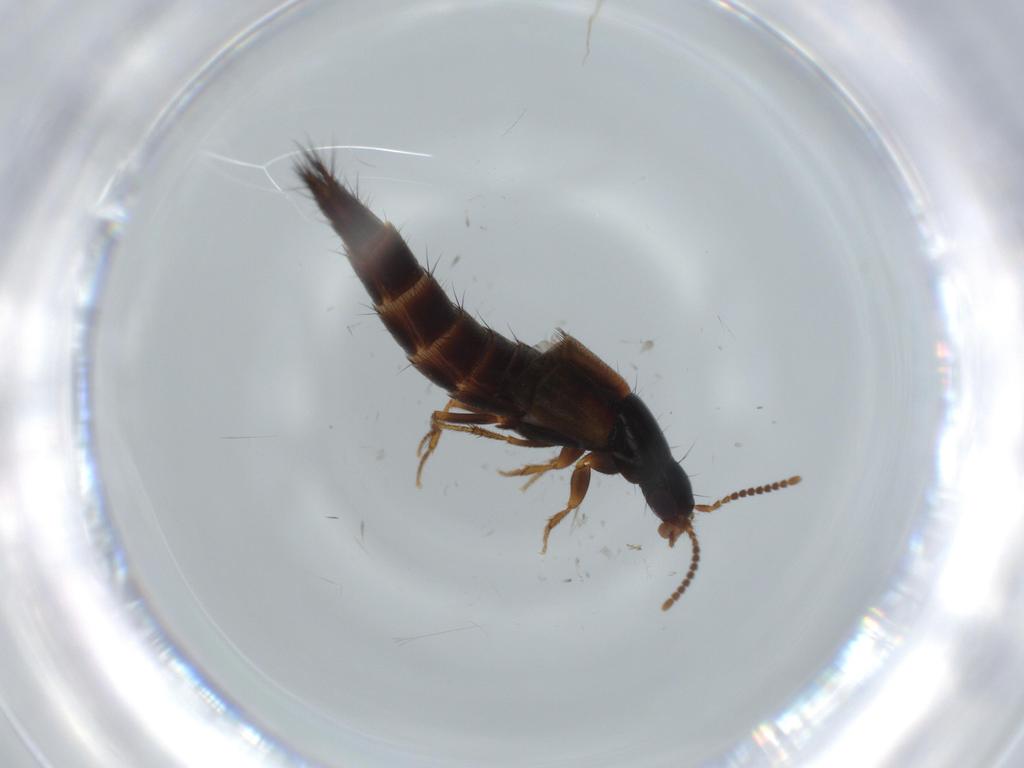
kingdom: Animalia
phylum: Arthropoda
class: Insecta
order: Coleoptera
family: Staphylinidae
